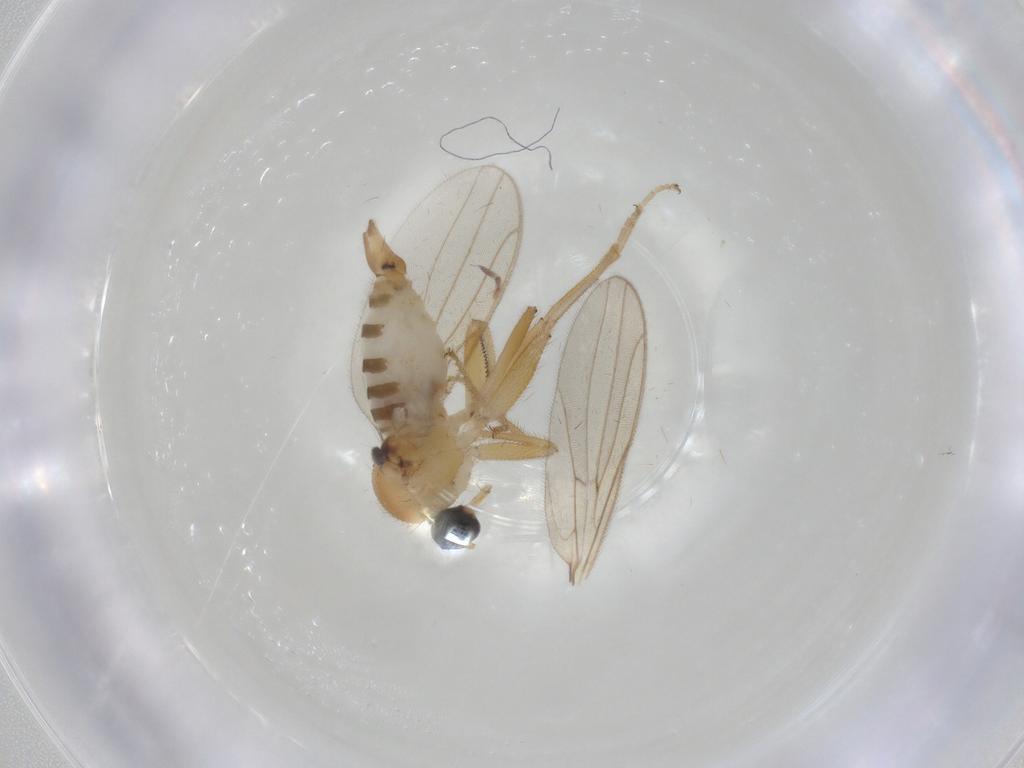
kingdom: Animalia
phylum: Arthropoda
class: Insecta
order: Diptera
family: Hybotidae
